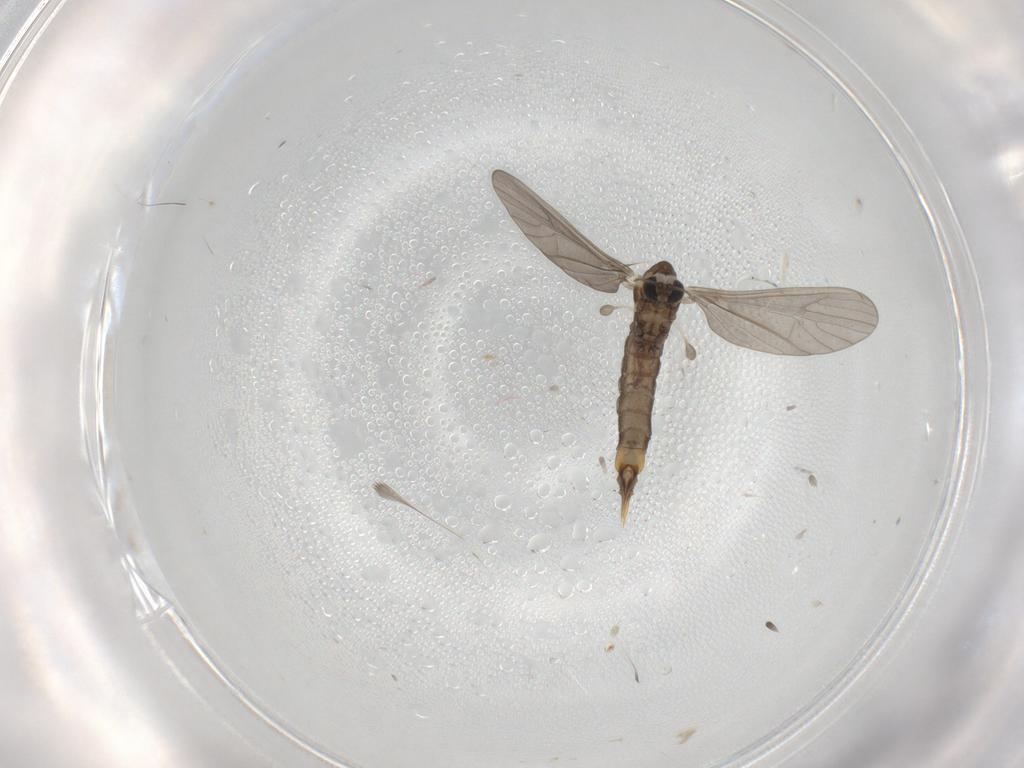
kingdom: Animalia
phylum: Arthropoda
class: Insecta
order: Diptera
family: Limoniidae
